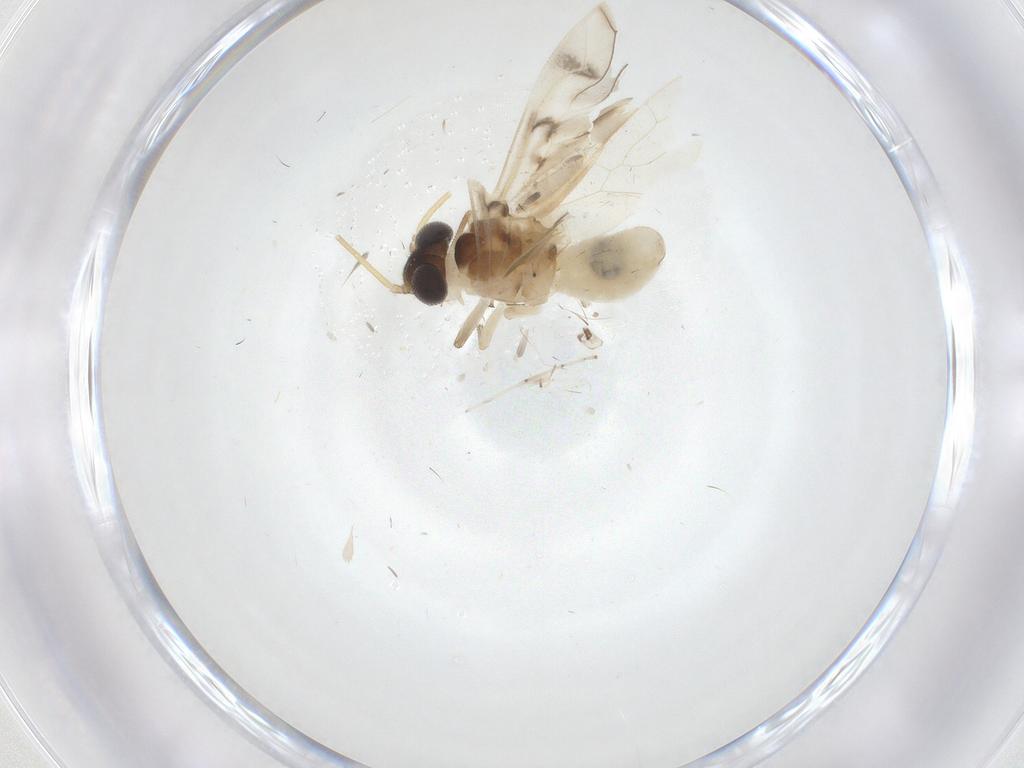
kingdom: Animalia
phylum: Arthropoda
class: Insecta
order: Psocodea
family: Caeciliusidae
